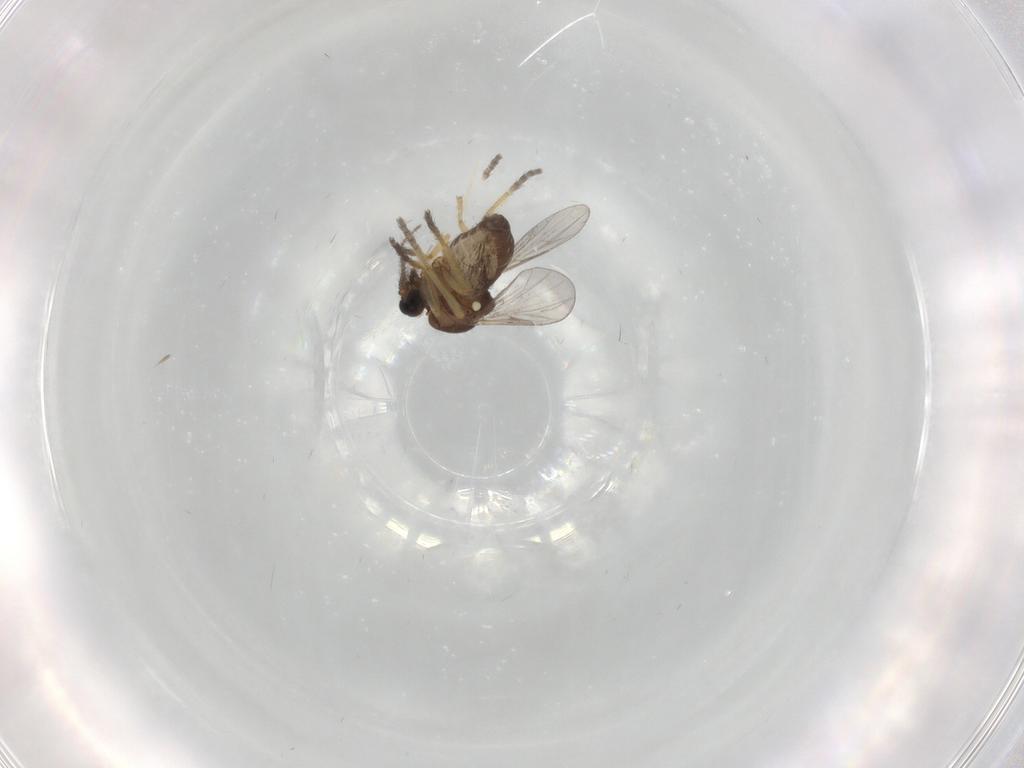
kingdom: Animalia
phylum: Arthropoda
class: Insecta
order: Diptera
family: Ceratopogonidae
